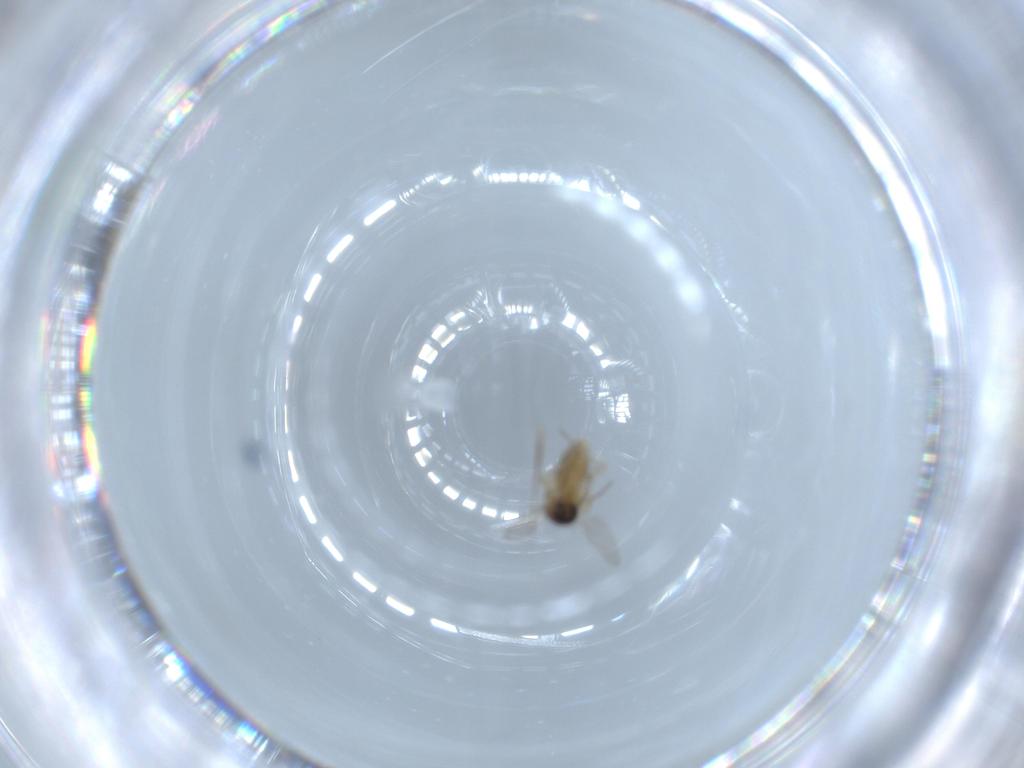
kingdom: Animalia
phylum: Arthropoda
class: Insecta
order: Diptera
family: Ceratopogonidae
